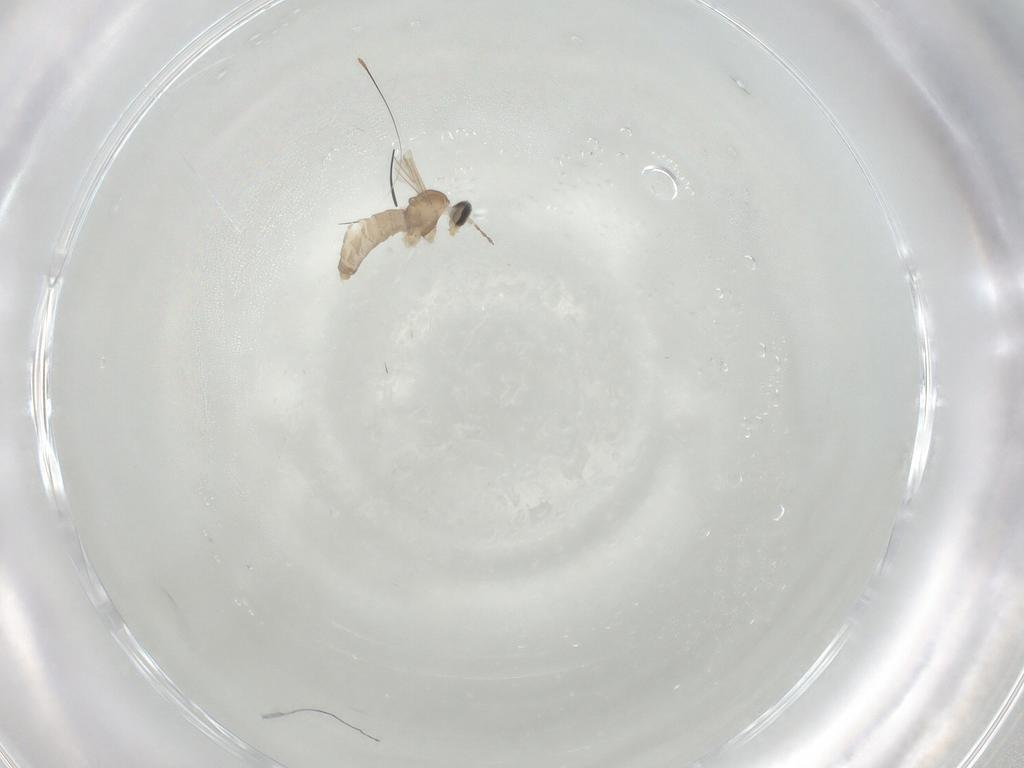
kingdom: Animalia
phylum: Arthropoda
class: Insecta
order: Diptera
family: Cecidomyiidae
